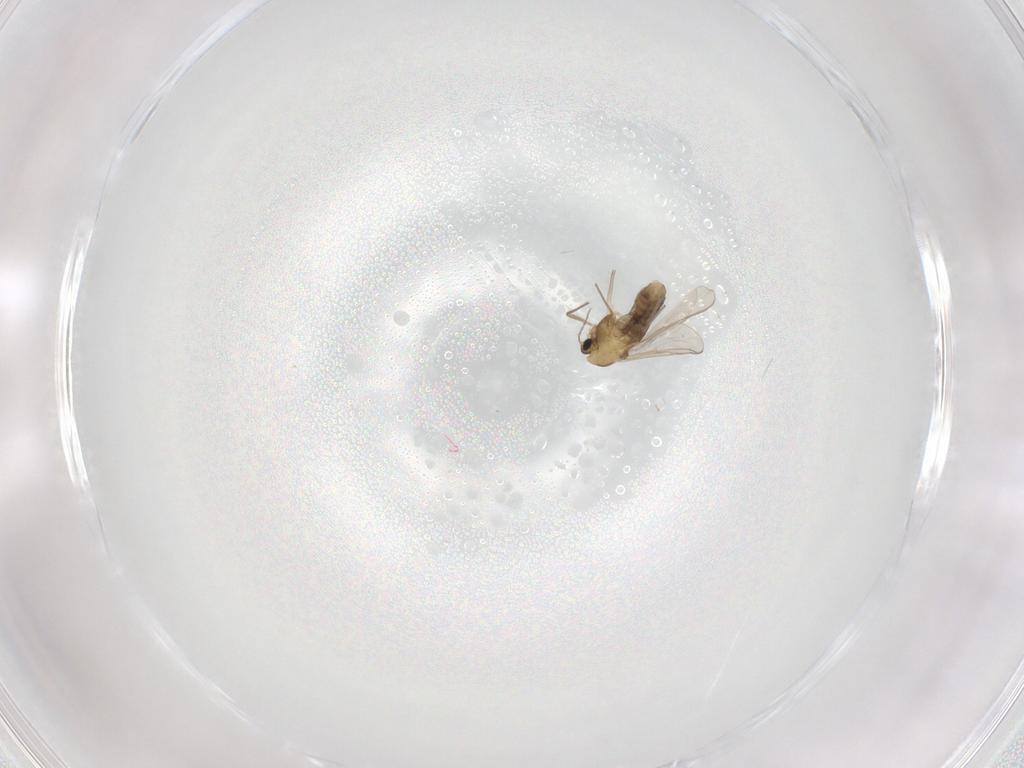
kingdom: Animalia
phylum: Arthropoda
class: Insecta
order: Diptera
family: Chironomidae
